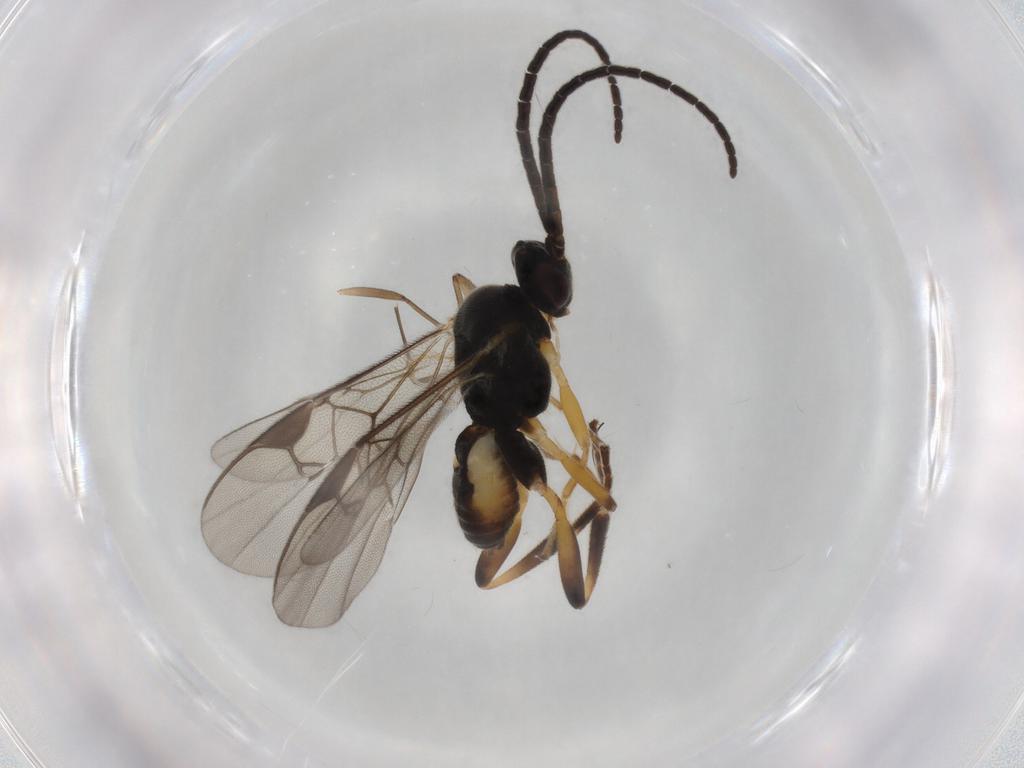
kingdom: Animalia
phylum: Arthropoda
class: Insecta
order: Hymenoptera
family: Braconidae
